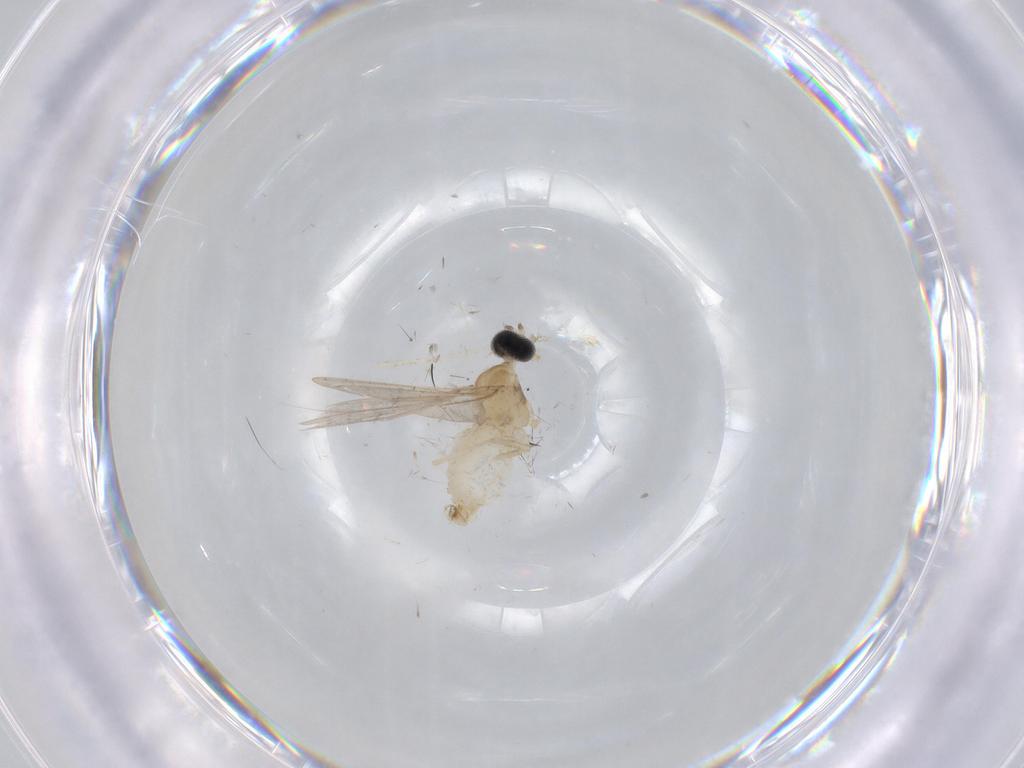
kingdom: Animalia
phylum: Arthropoda
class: Insecta
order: Diptera
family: Cecidomyiidae
